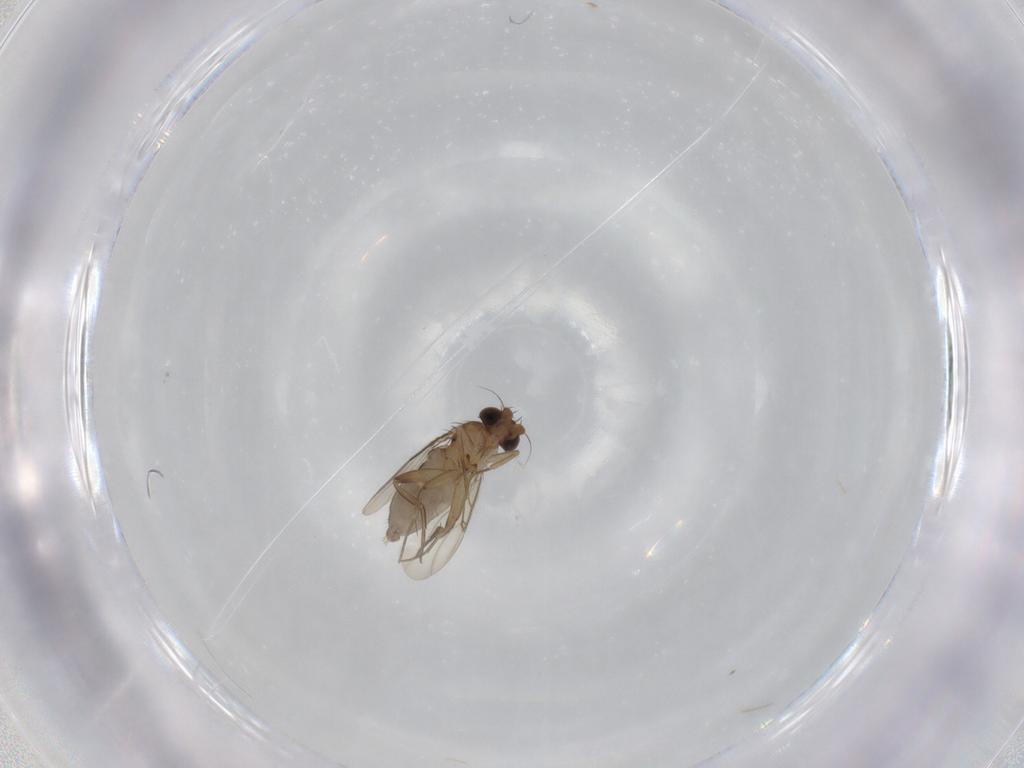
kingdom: Animalia
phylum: Arthropoda
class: Insecta
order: Diptera
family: Phoridae
